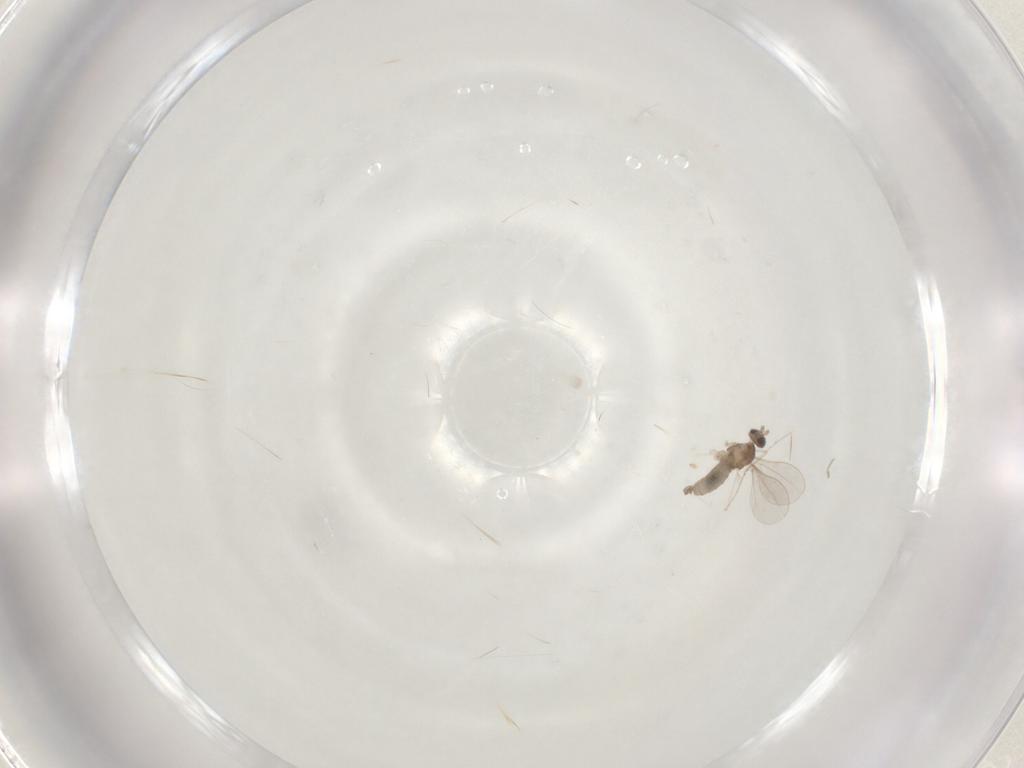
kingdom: Animalia
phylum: Arthropoda
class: Insecta
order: Diptera
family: Cecidomyiidae
